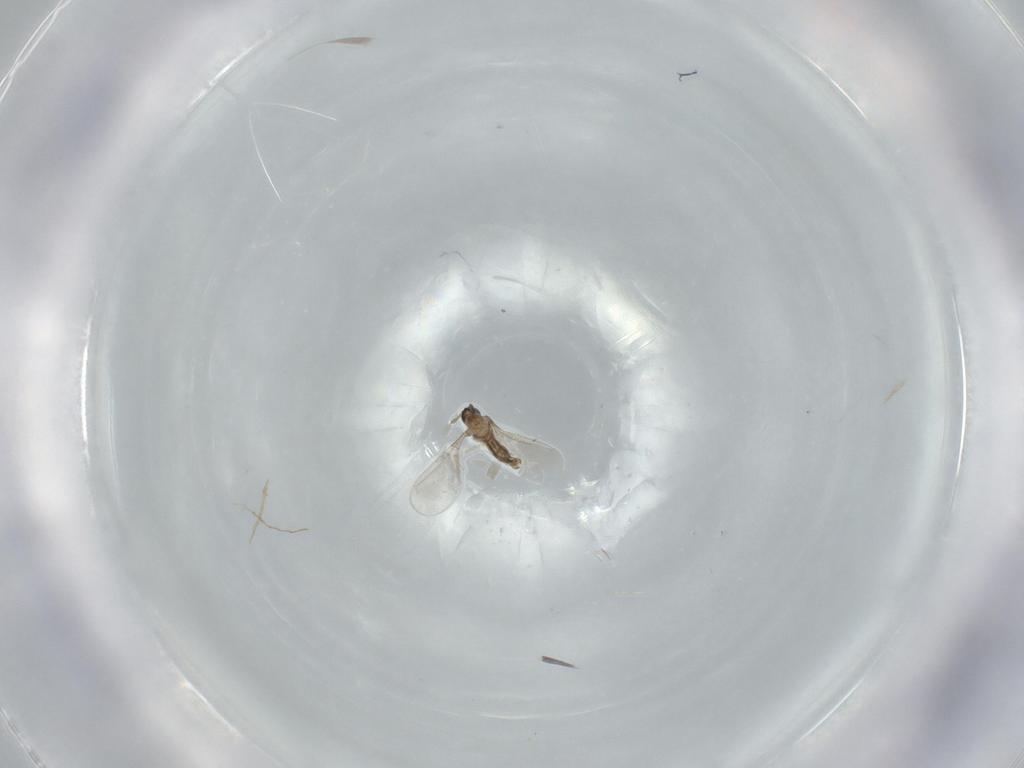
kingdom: Animalia
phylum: Arthropoda
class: Insecta
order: Diptera
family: Cecidomyiidae
